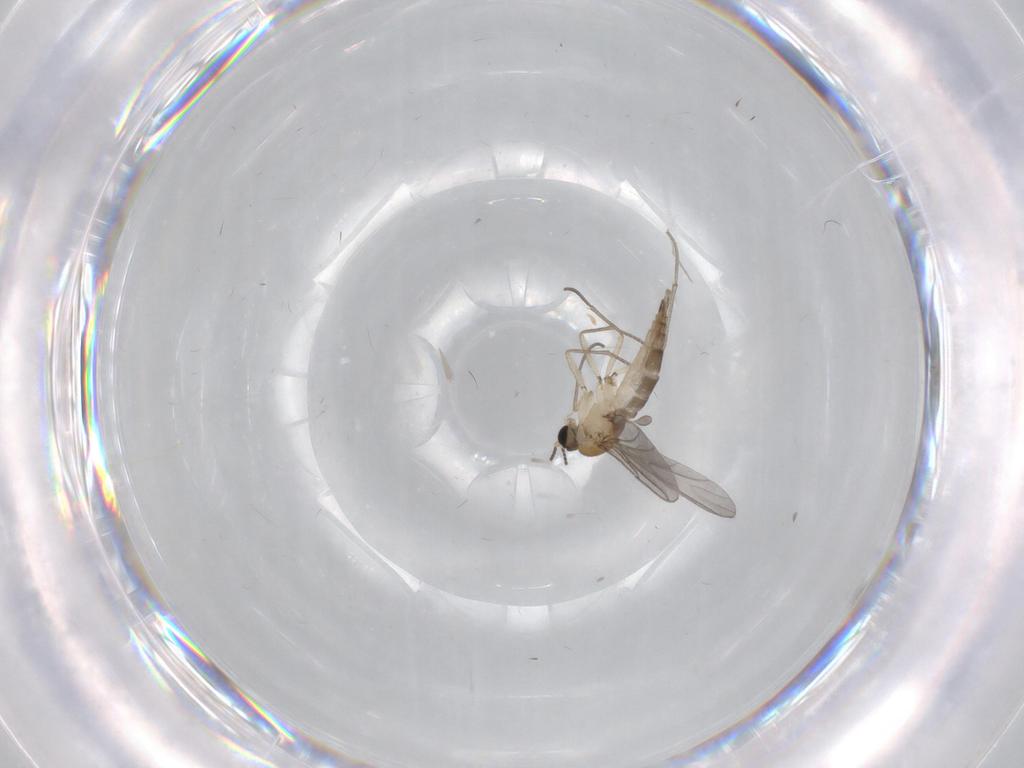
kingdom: Animalia
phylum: Arthropoda
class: Insecta
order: Diptera
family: Sciaridae
